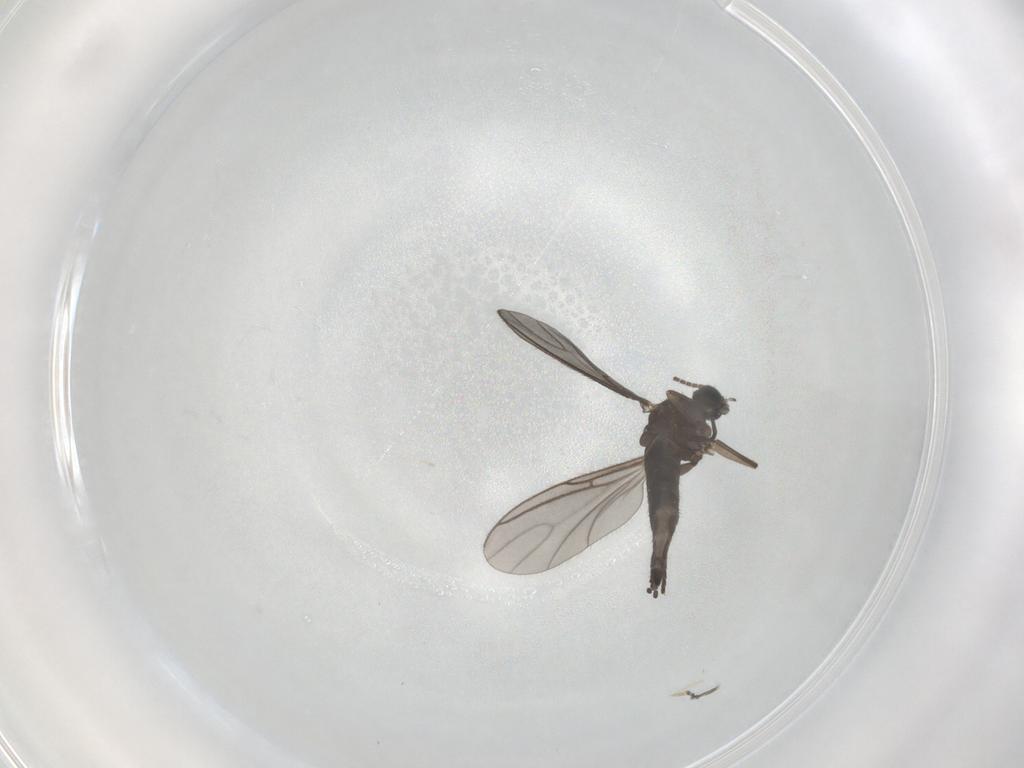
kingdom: Animalia
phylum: Arthropoda
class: Insecta
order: Diptera
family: Cecidomyiidae
